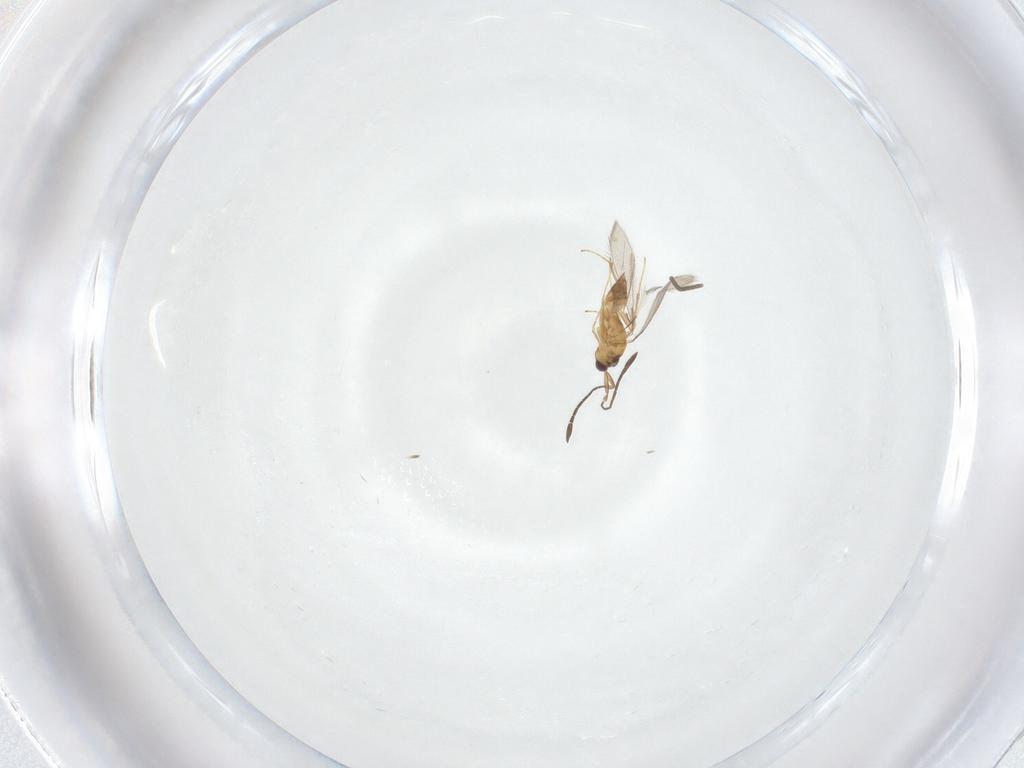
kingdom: Animalia
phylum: Arthropoda
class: Insecta
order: Diptera
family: Sciaridae
